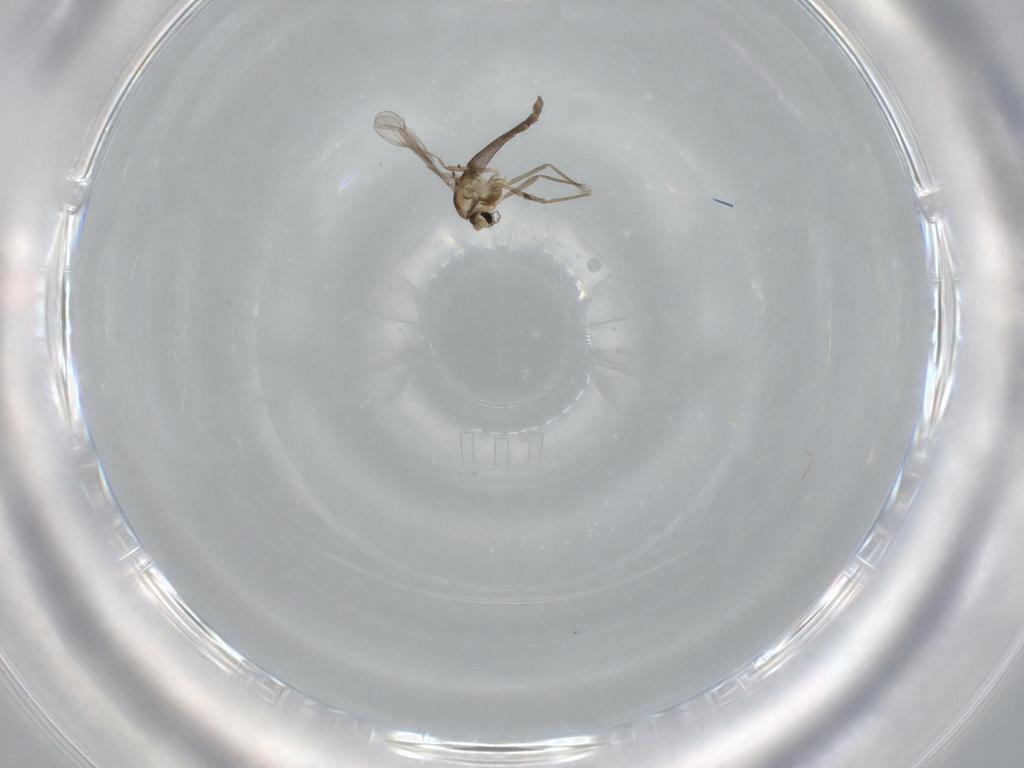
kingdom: Animalia
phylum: Arthropoda
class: Insecta
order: Diptera
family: Chironomidae
